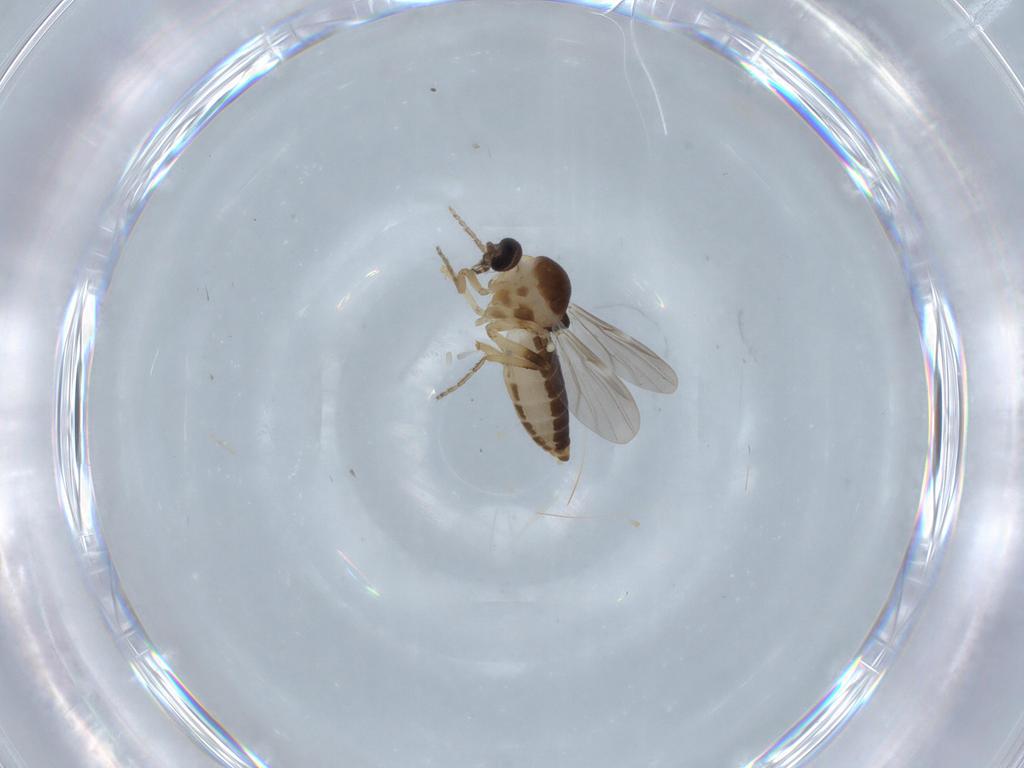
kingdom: Animalia
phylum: Arthropoda
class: Insecta
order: Diptera
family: Ceratopogonidae
